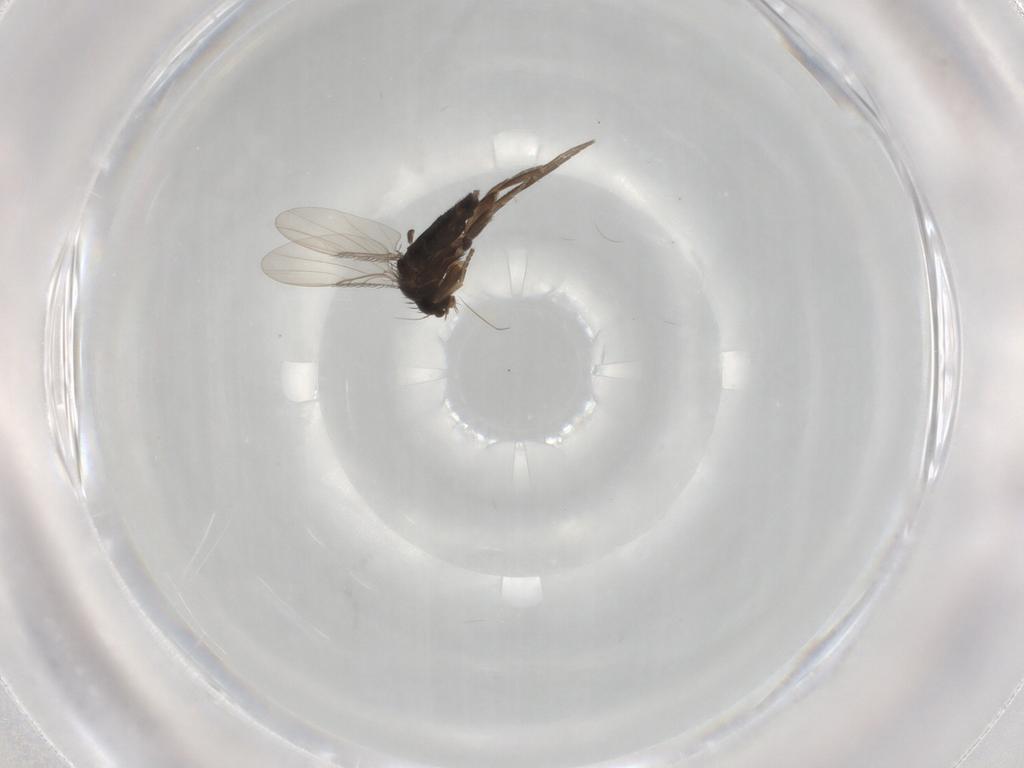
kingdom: Animalia
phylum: Arthropoda
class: Insecta
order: Diptera
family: Phoridae
